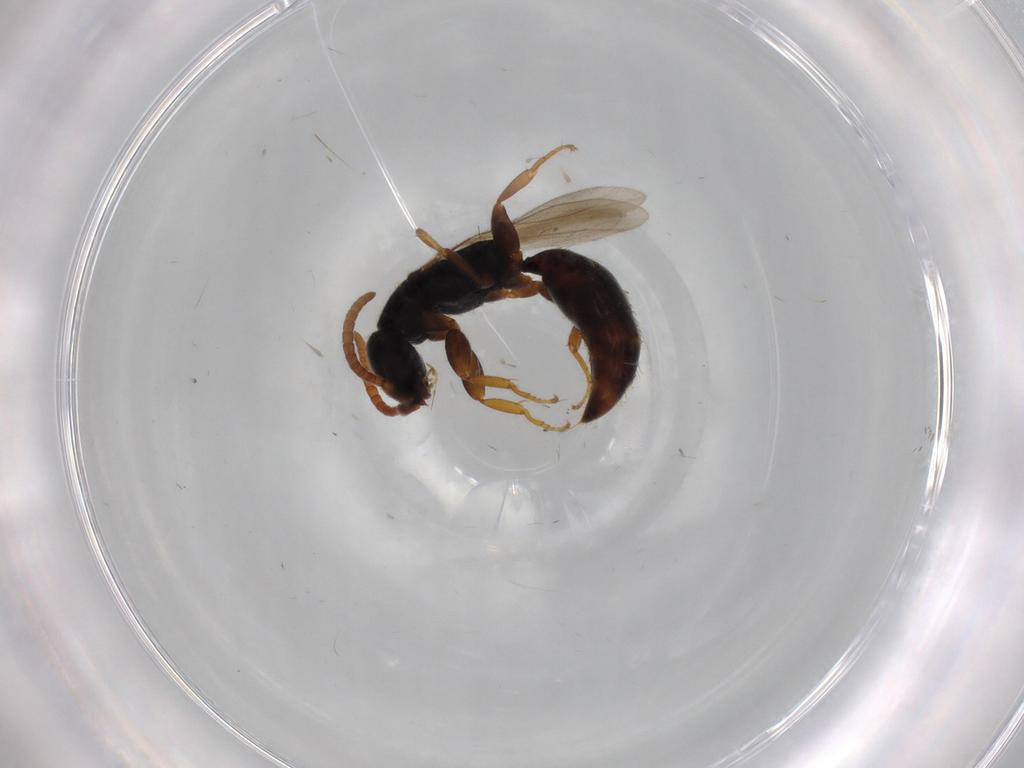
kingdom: Animalia
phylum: Arthropoda
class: Insecta
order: Hymenoptera
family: Bethylidae
